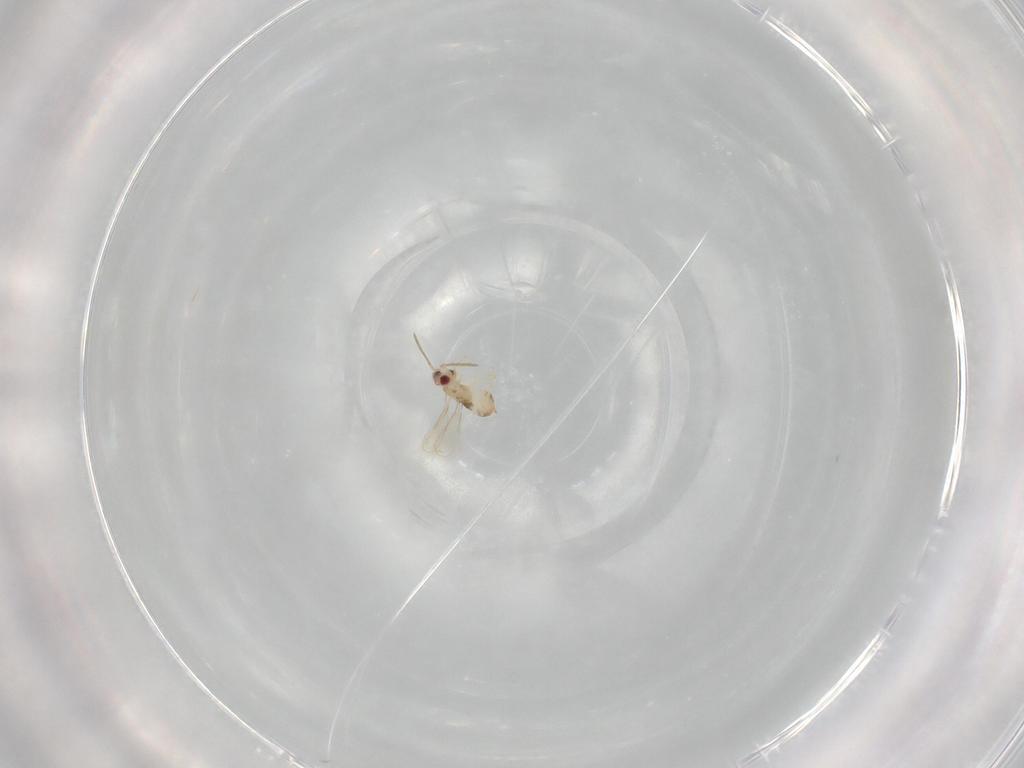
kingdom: Animalia
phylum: Arthropoda
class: Insecta
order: Hymenoptera
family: Aphelinidae
